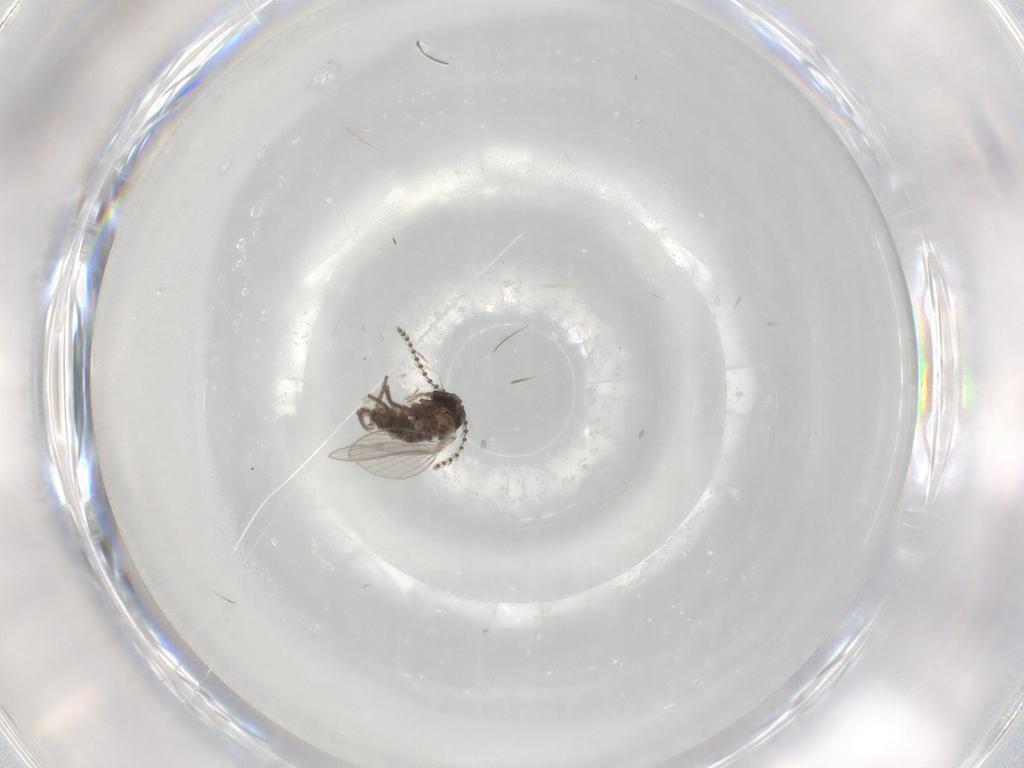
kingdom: Animalia
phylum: Arthropoda
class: Insecta
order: Diptera
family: Psychodidae
